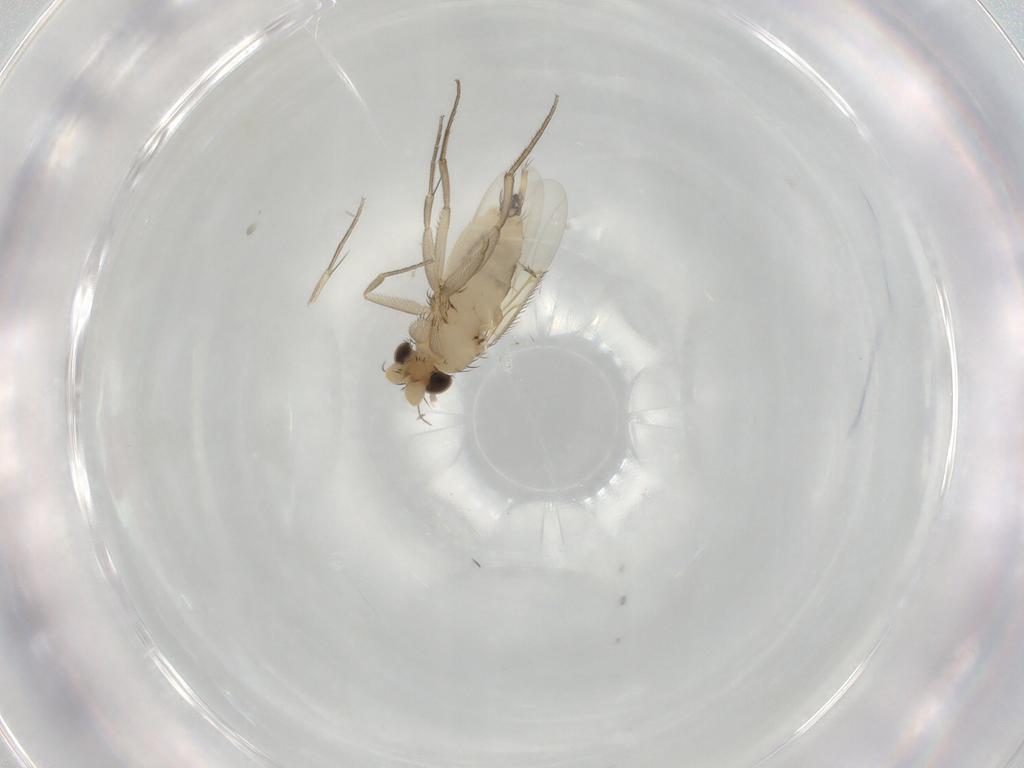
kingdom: Animalia
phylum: Arthropoda
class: Insecta
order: Diptera
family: Phoridae
